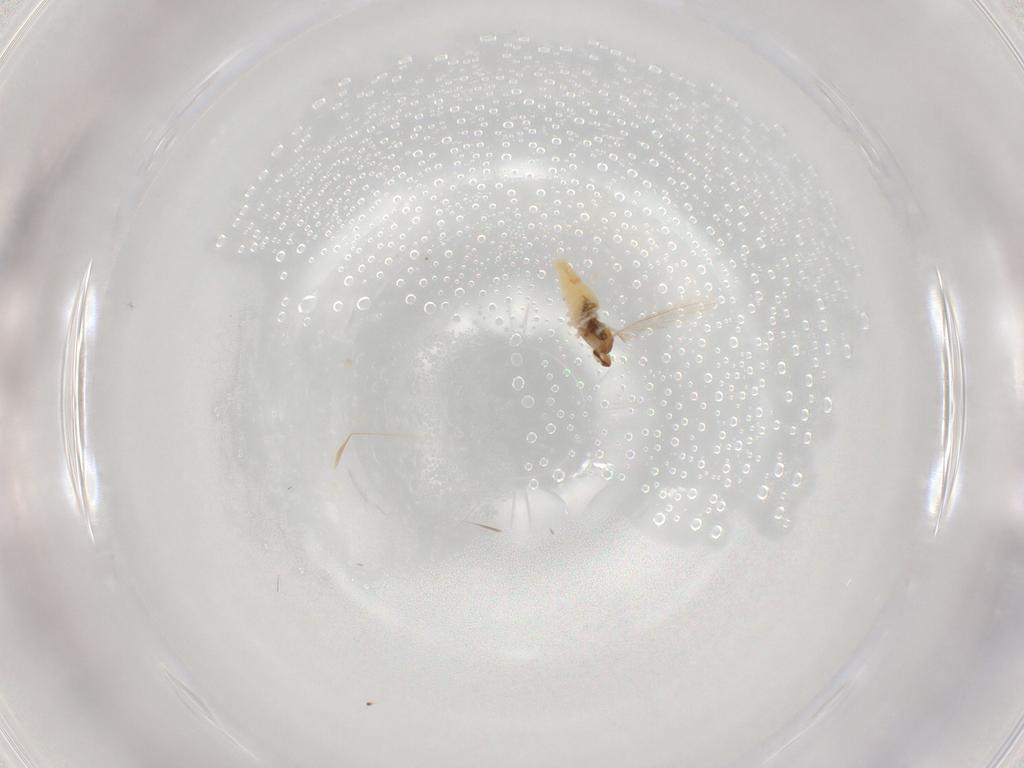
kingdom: Animalia
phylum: Arthropoda
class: Insecta
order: Diptera
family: Cecidomyiidae
